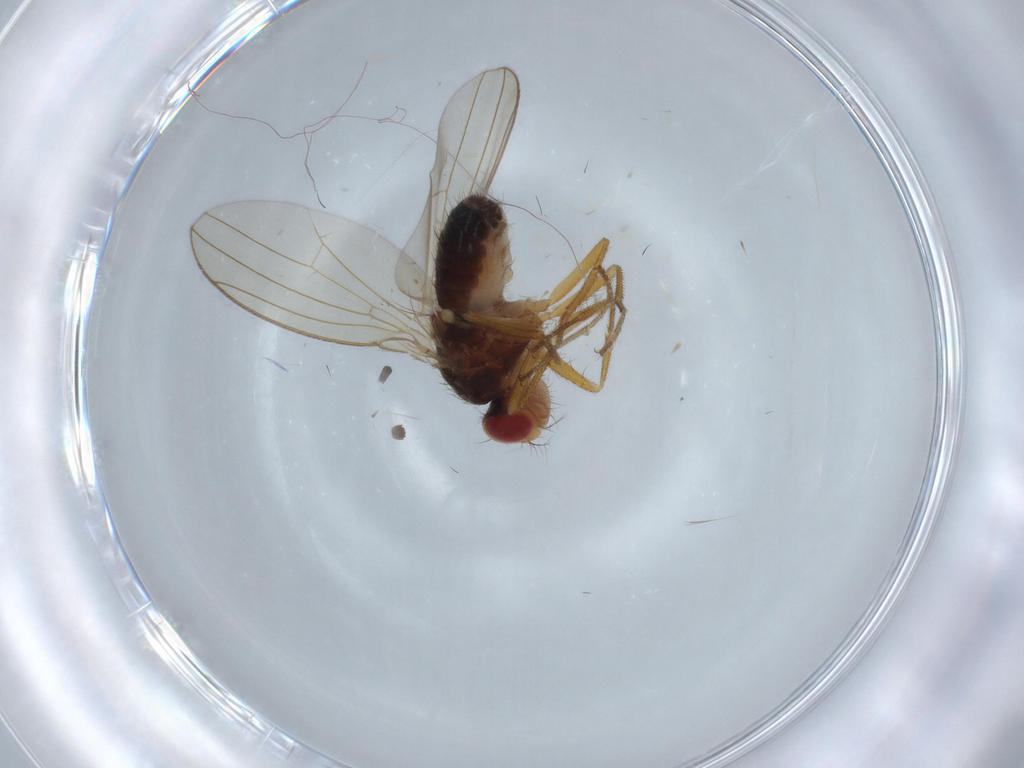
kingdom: Animalia
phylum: Arthropoda
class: Insecta
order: Diptera
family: Drosophilidae
